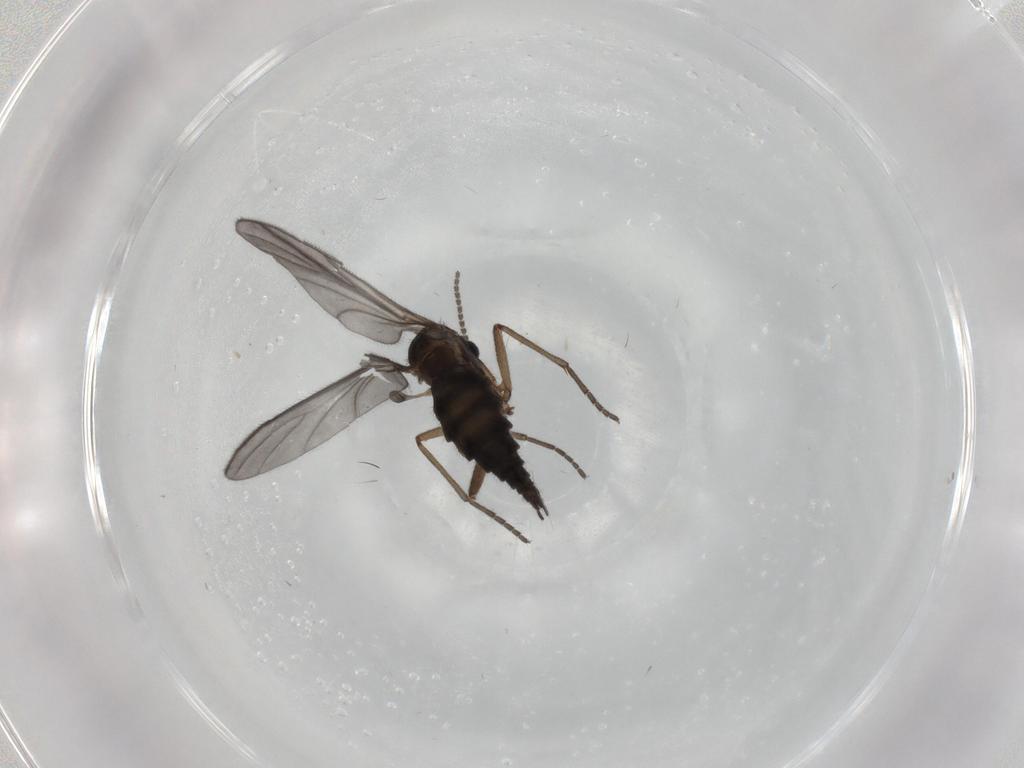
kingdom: Animalia
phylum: Arthropoda
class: Insecta
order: Diptera
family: Sciaridae
